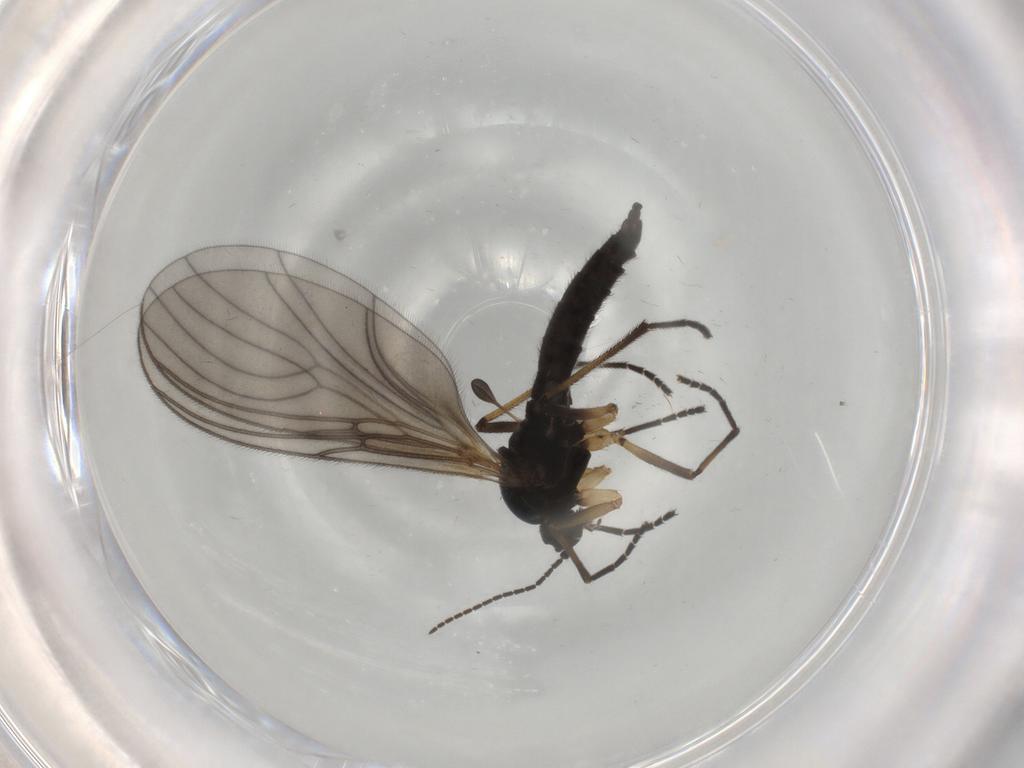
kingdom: Animalia
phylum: Arthropoda
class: Insecta
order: Diptera
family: Sciaridae
